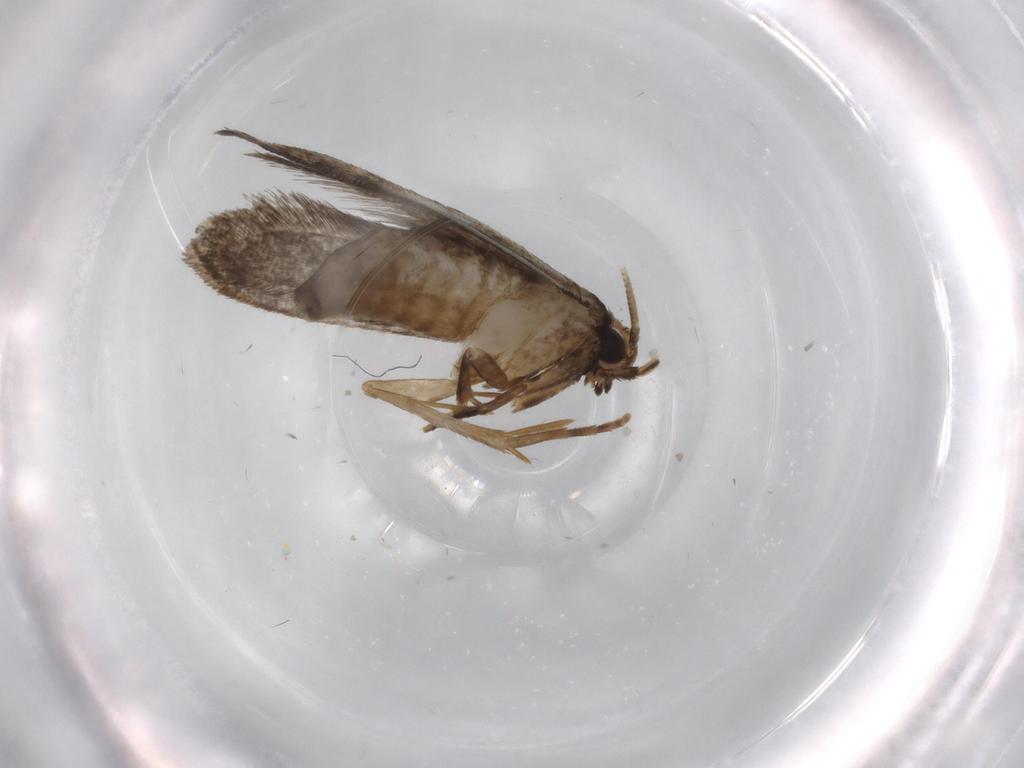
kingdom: Animalia
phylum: Arthropoda
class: Insecta
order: Lepidoptera
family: Tineidae
